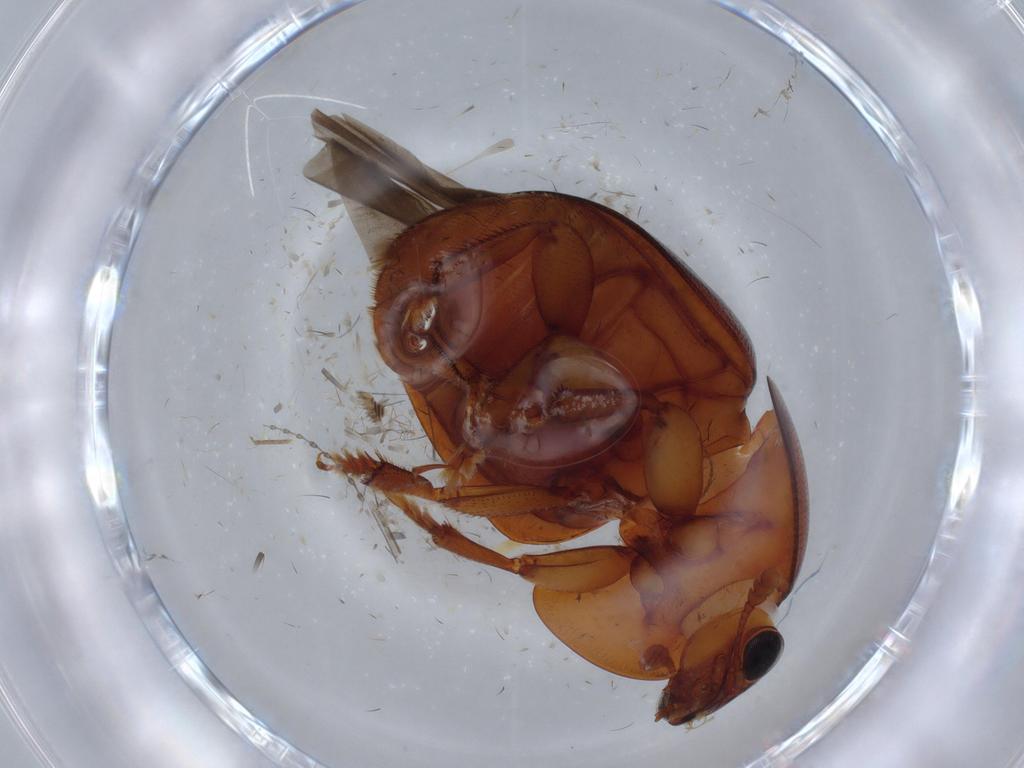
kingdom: Animalia
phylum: Arthropoda
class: Insecta
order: Coleoptera
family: Nitidulidae
